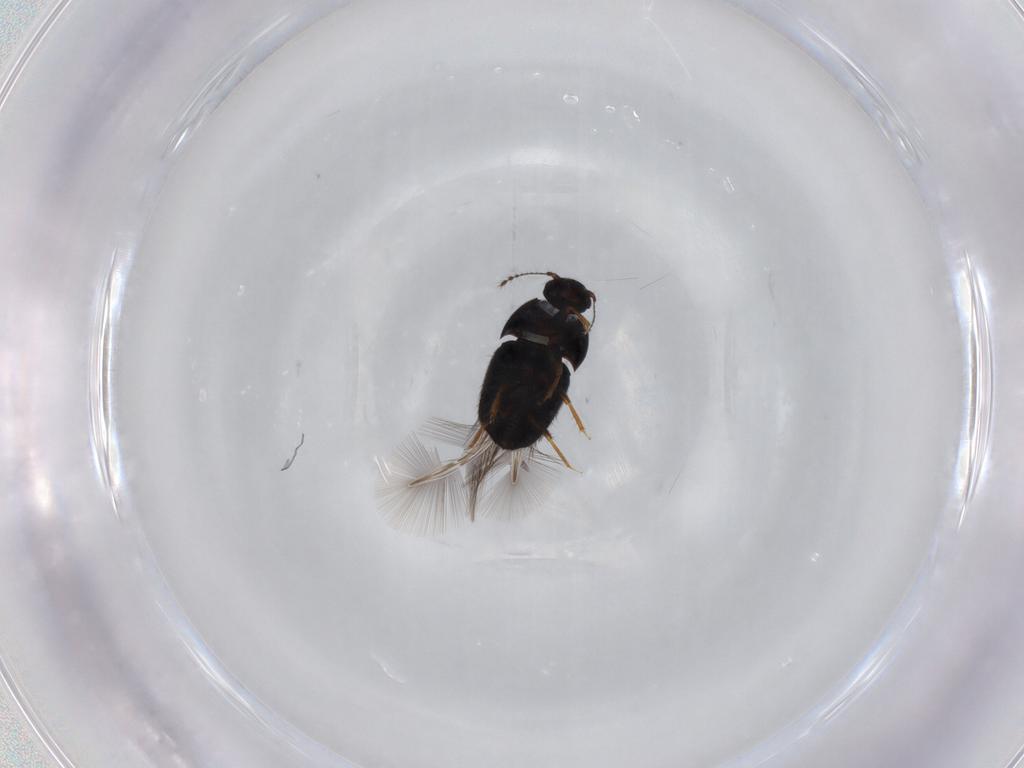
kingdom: Animalia
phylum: Arthropoda
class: Insecta
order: Coleoptera
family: Ptiliidae
